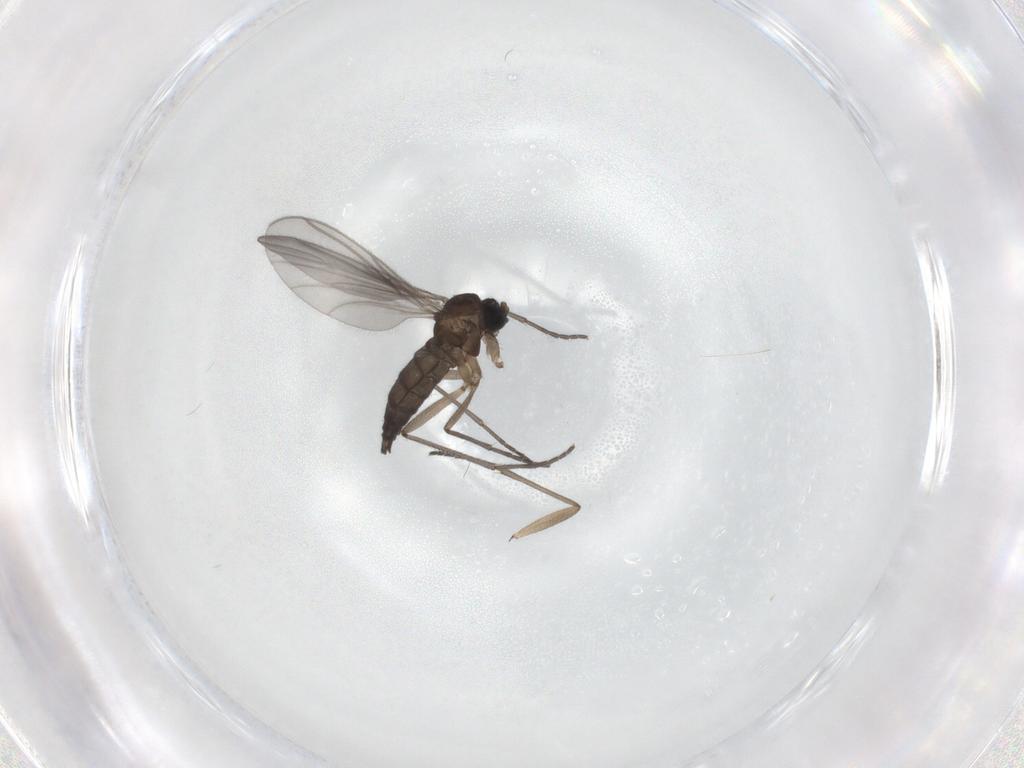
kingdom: Animalia
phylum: Arthropoda
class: Insecta
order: Diptera
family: Sciaridae
